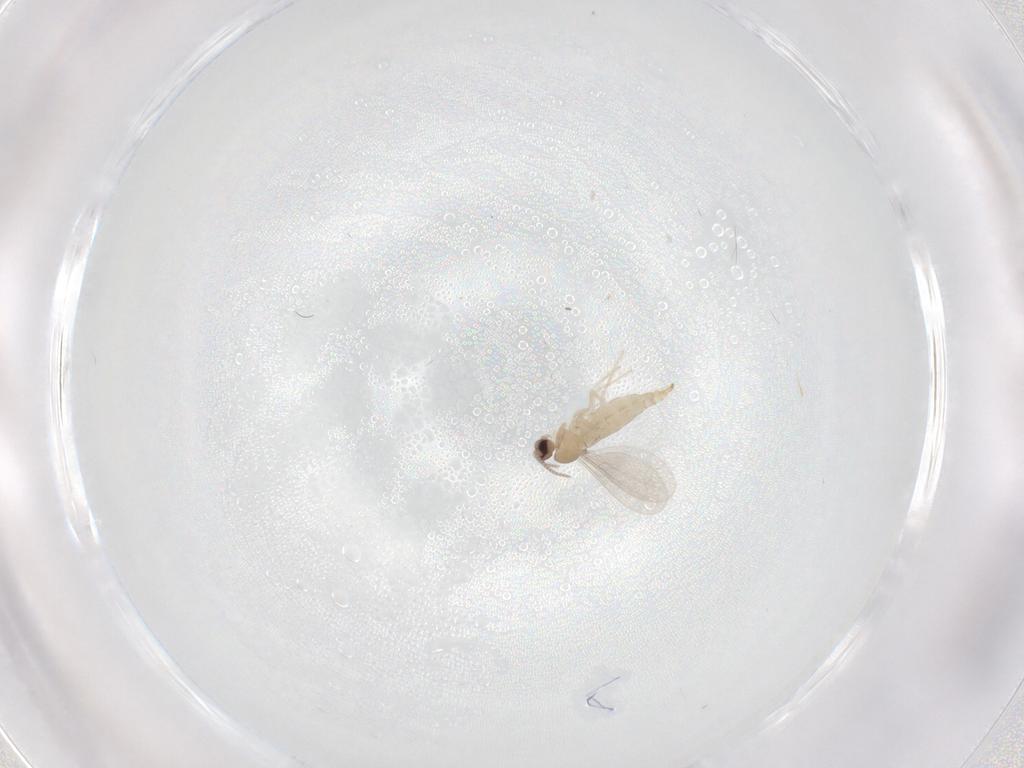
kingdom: Animalia
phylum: Arthropoda
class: Insecta
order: Diptera
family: Cecidomyiidae
